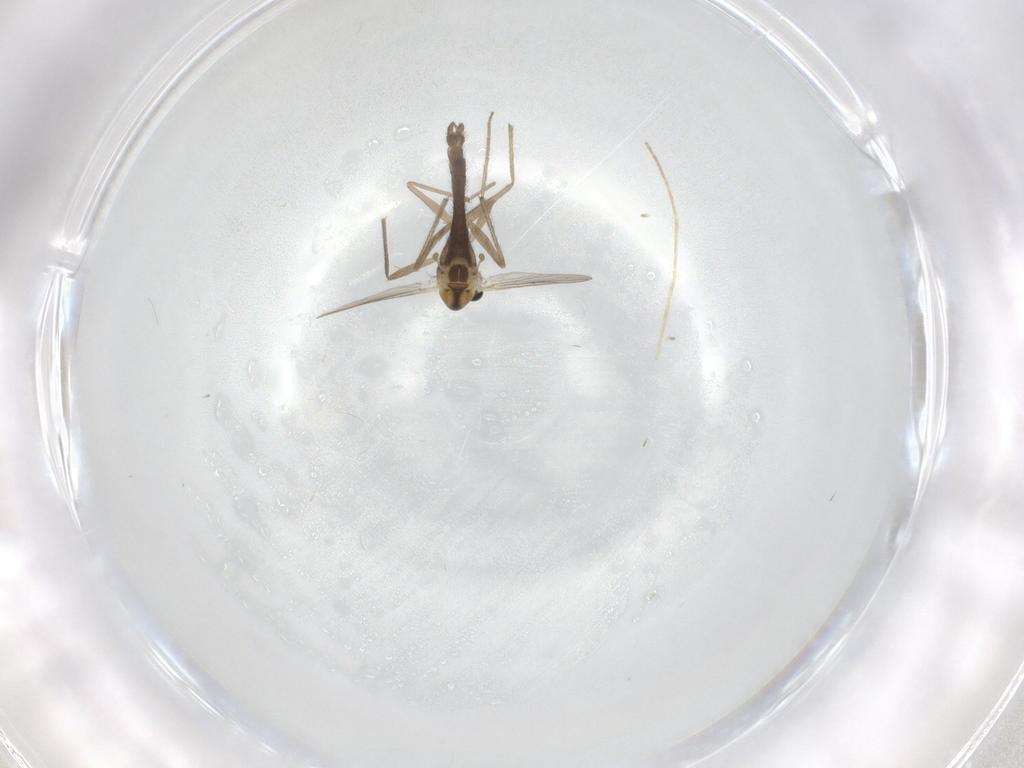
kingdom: Animalia
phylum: Arthropoda
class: Insecta
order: Diptera
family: Chironomidae
